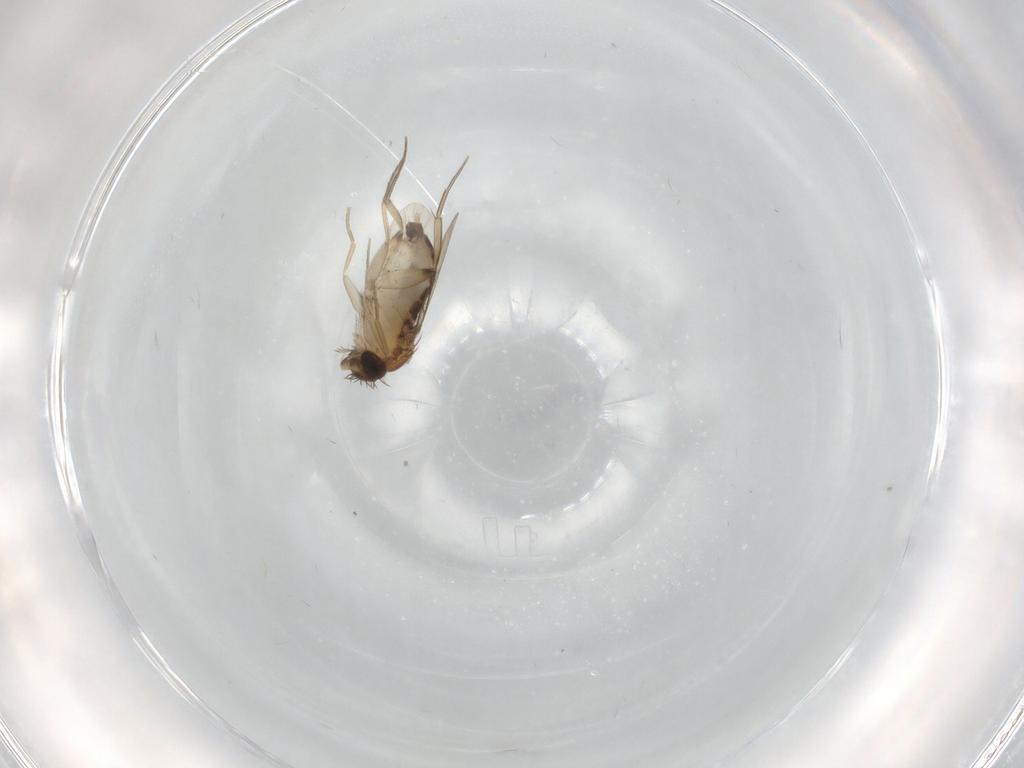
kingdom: Animalia
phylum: Arthropoda
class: Insecta
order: Diptera
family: Phoridae
